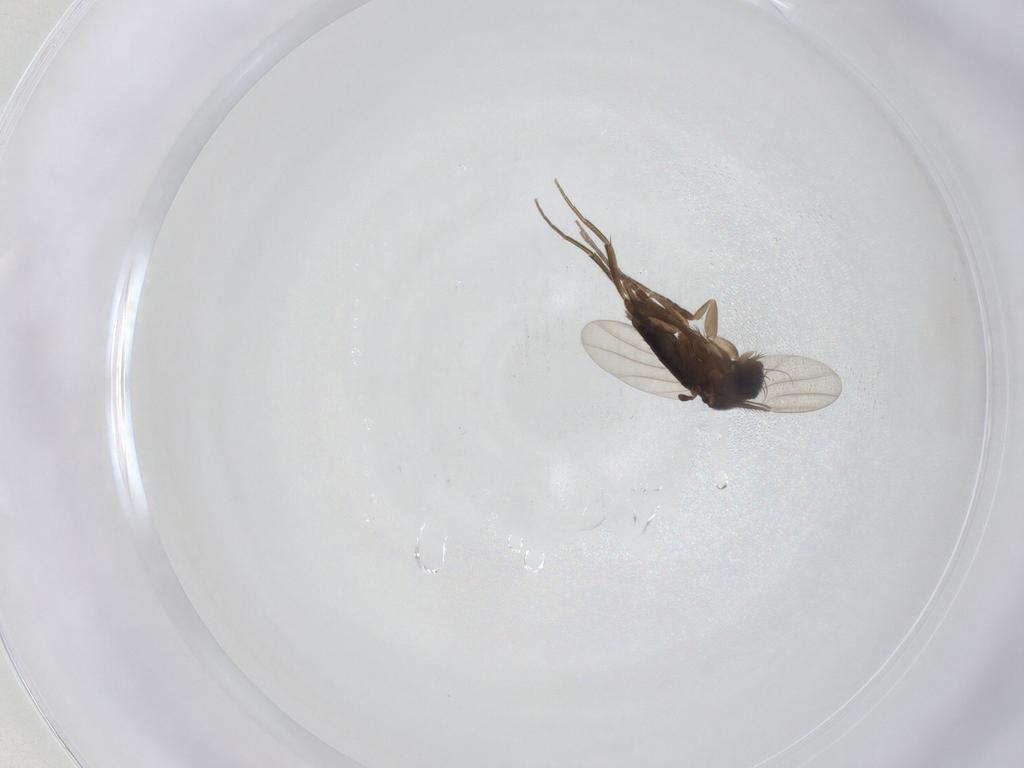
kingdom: Animalia
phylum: Arthropoda
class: Insecta
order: Diptera
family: Phoridae
